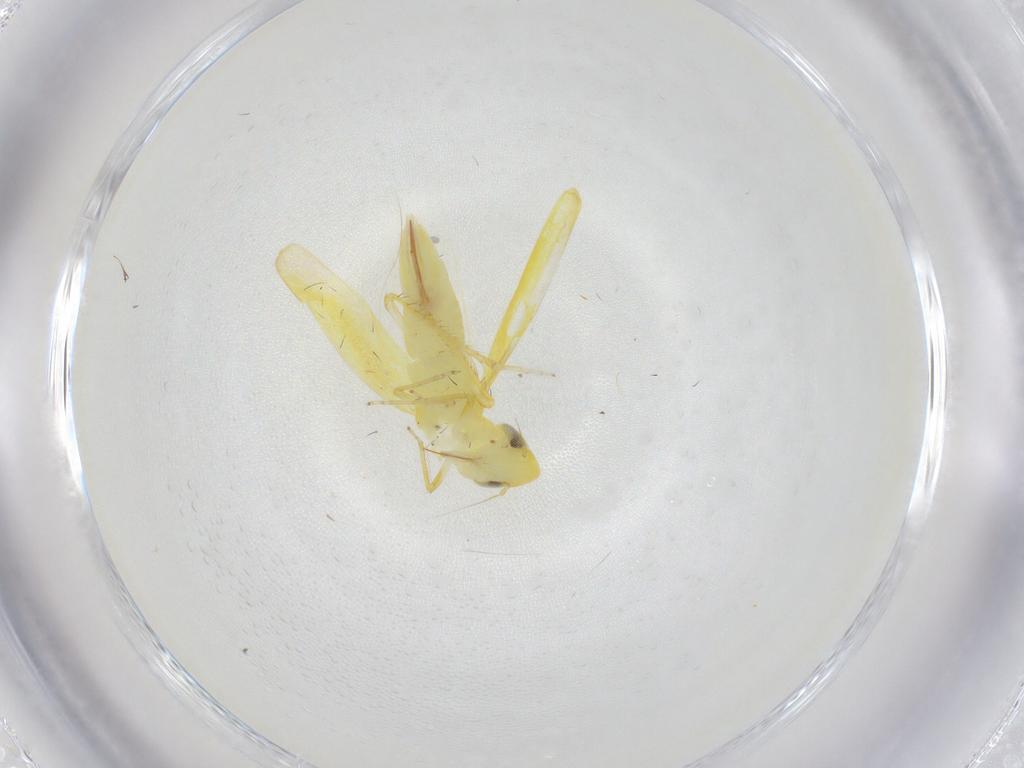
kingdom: Animalia
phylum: Arthropoda
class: Insecta
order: Hemiptera
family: Cicadellidae
